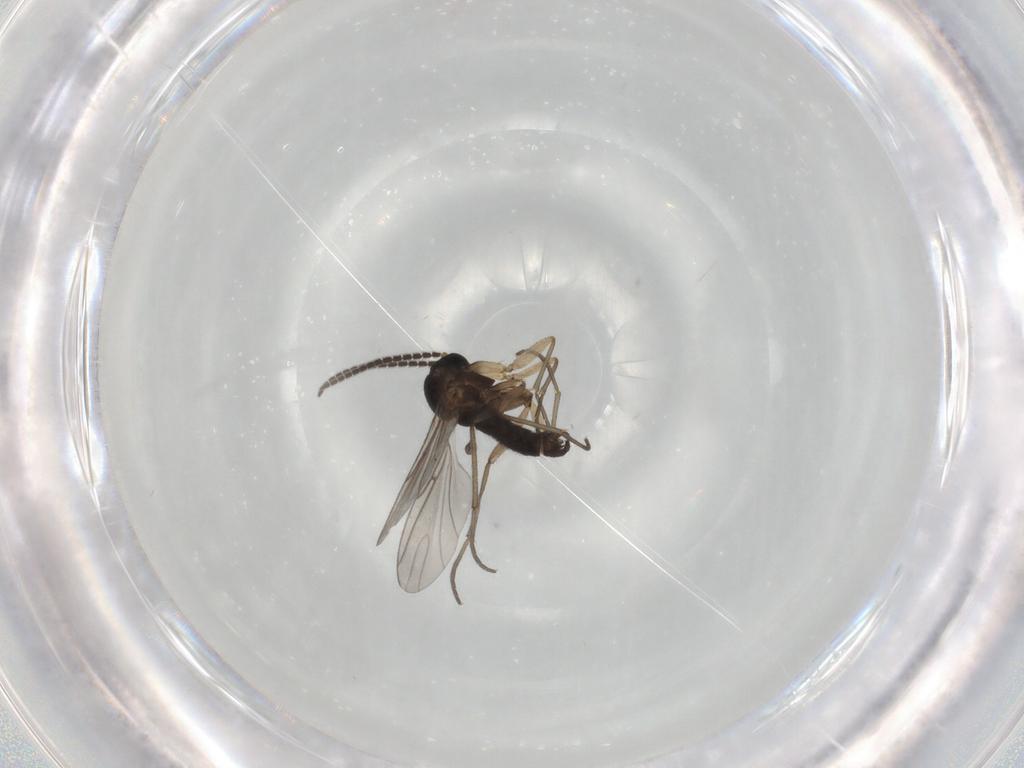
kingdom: Animalia
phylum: Arthropoda
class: Insecta
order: Diptera
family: Sciaridae
